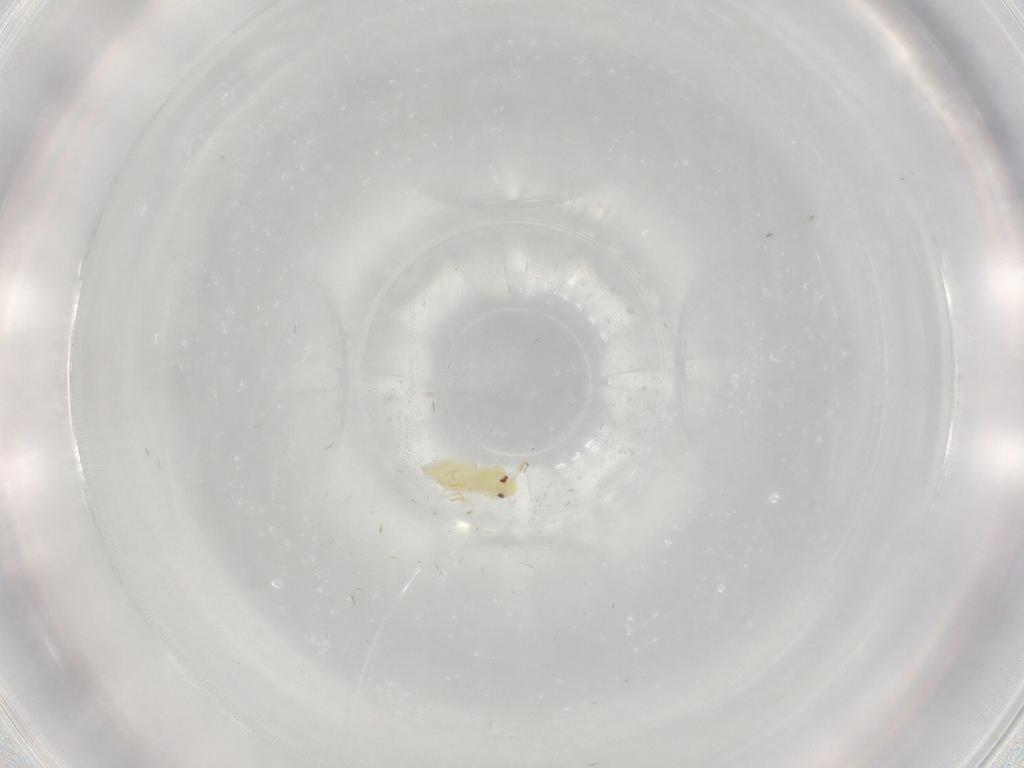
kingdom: Animalia
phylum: Arthropoda
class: Insecta
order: Hemiptera
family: Aleyrodidae
